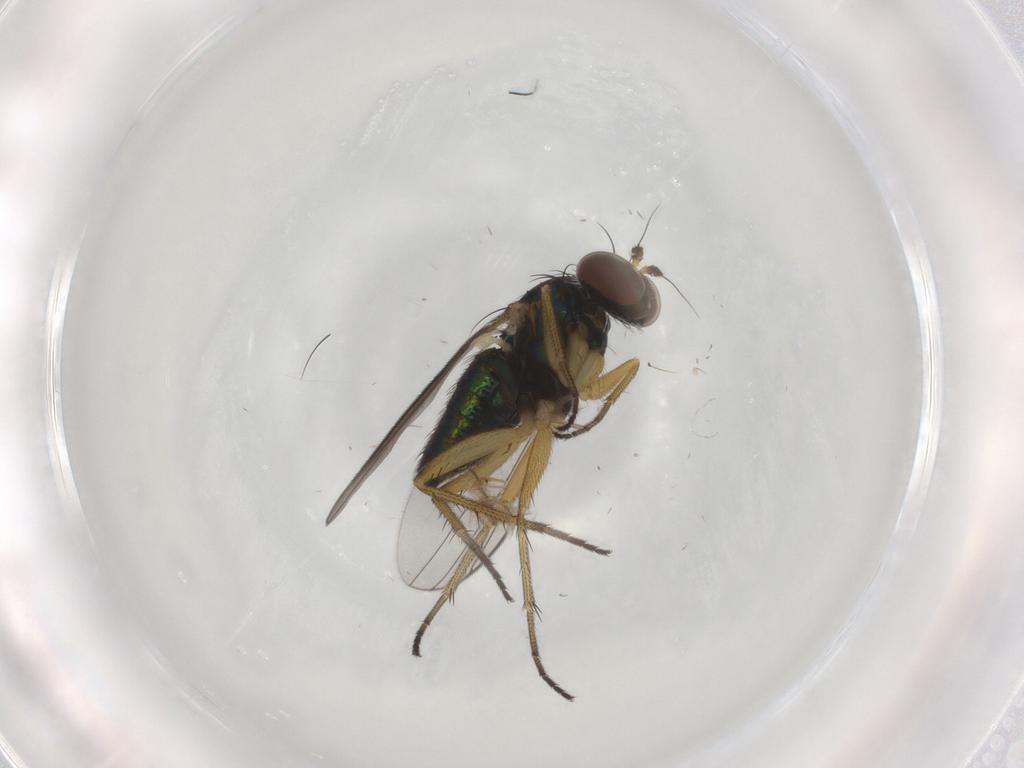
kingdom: Animalia
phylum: Arthropoda
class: Insecta
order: Diptera
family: Dolichopodidae
